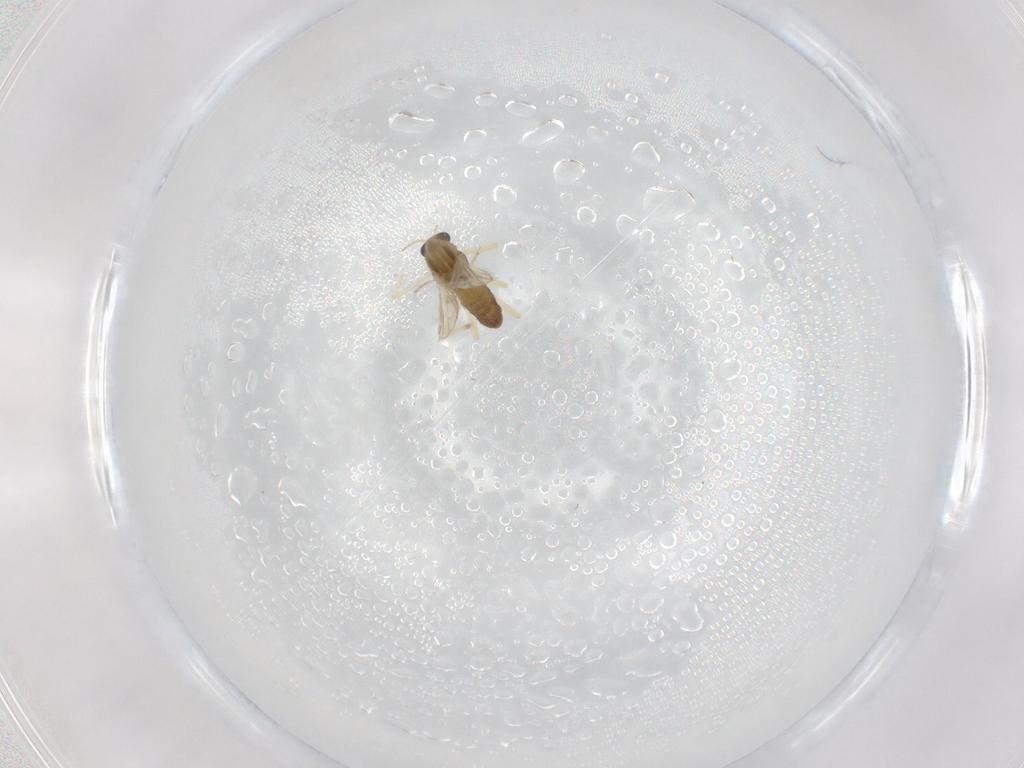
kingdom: Animalia
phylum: Arthropoda
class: Insecta
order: Diptera
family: Chironomidae
